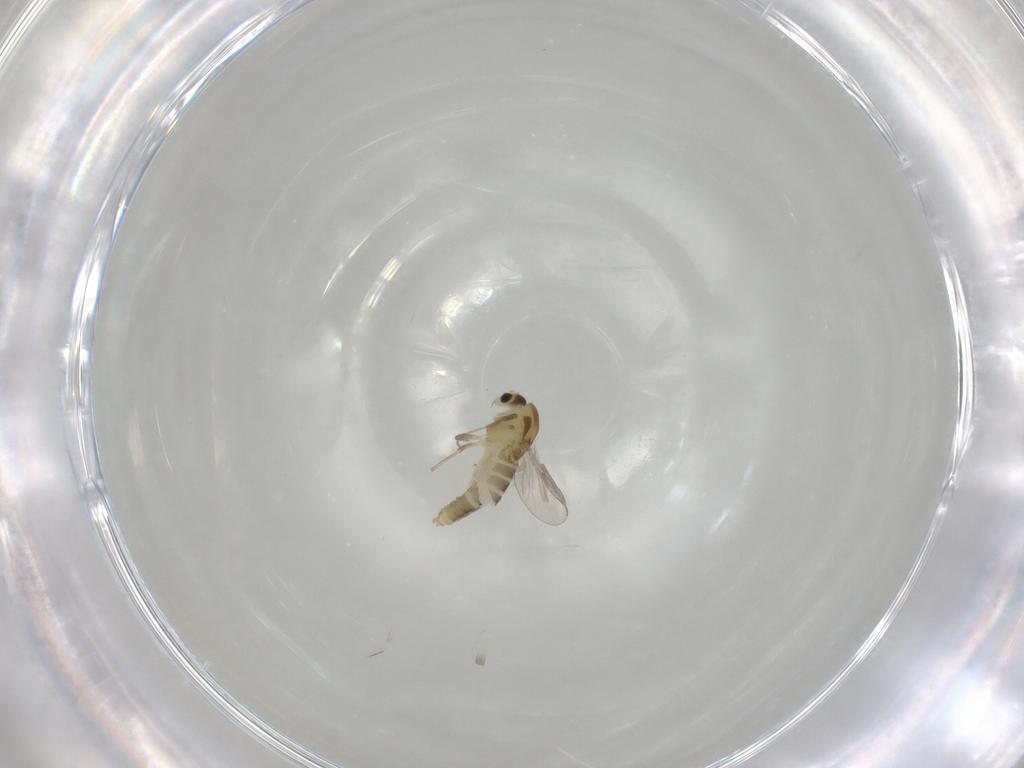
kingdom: Animalia
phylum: Arthropoda
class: Insecta
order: Diptera
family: Chironomidae
